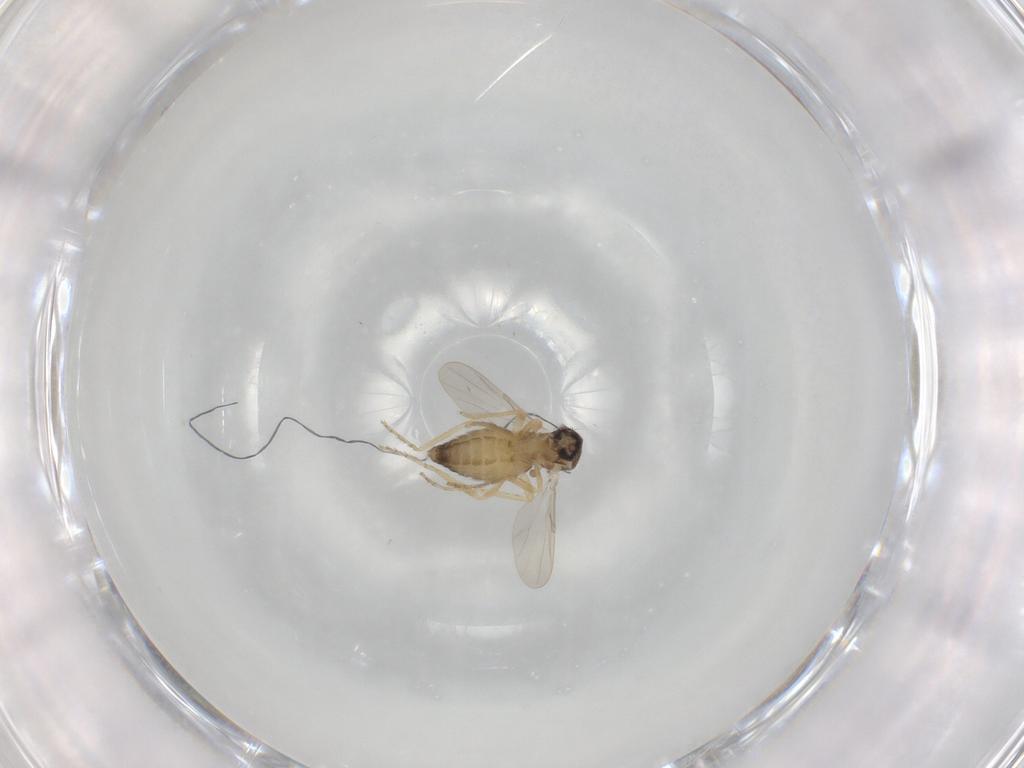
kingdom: Animalia
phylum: Arthropoda
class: Insecta
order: Diptera
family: Ceratopogonidae
